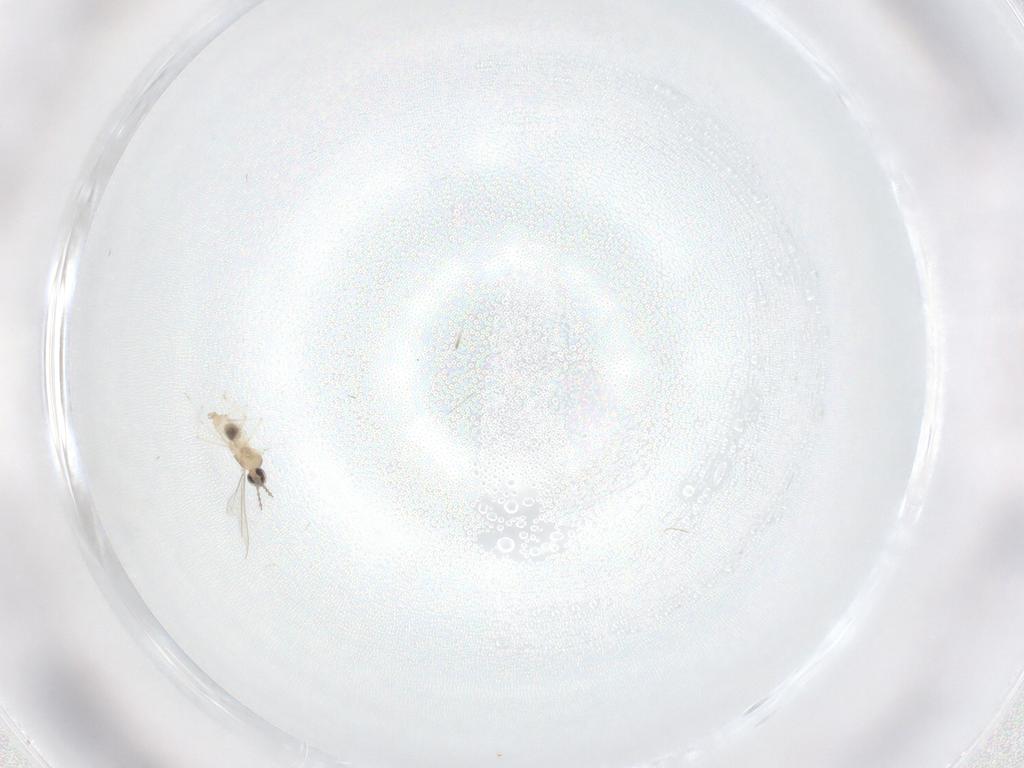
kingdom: Animalia
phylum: Arthropoda
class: Insecta
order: Diptera
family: Cecidomyiidae
